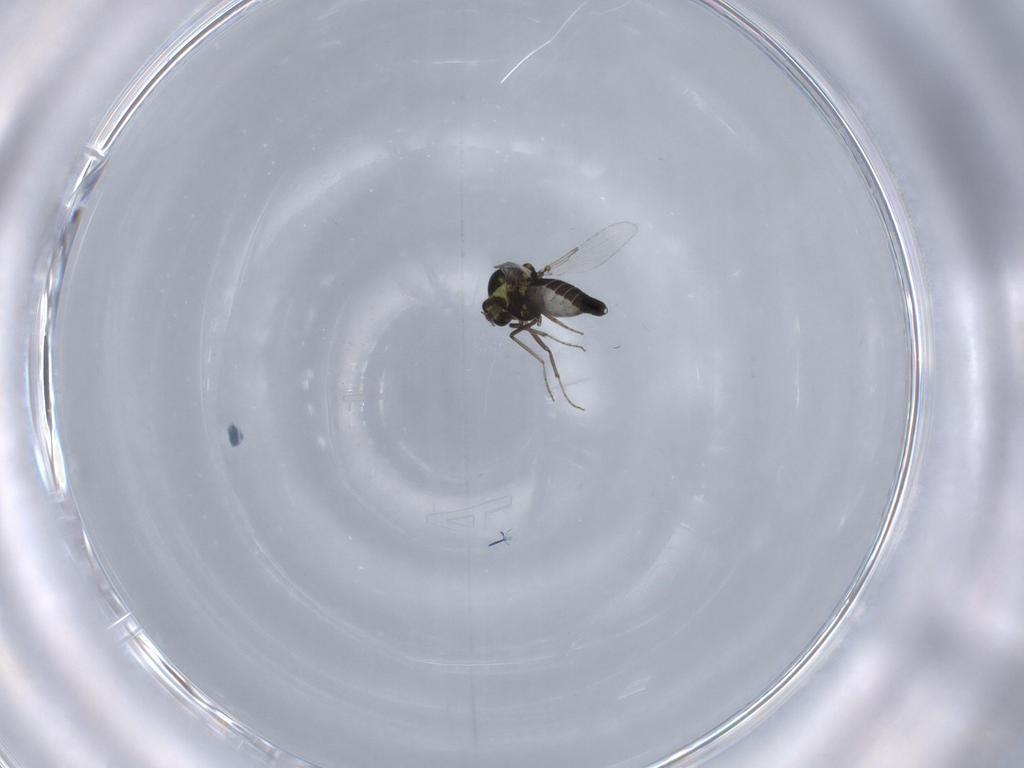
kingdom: Animalia
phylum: Arthropoda
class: Insecta
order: Diptera
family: Ceratopogonidae
